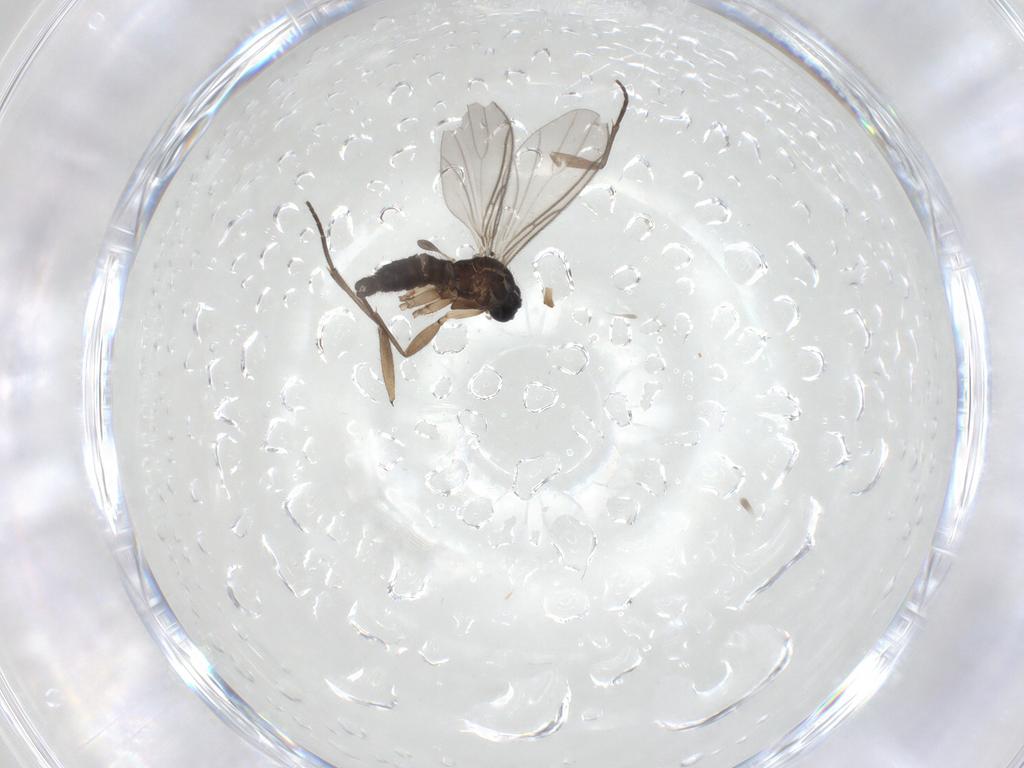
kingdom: Animalia
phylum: Arthropoda
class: Insecta
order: Diptera
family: Sciaridae
